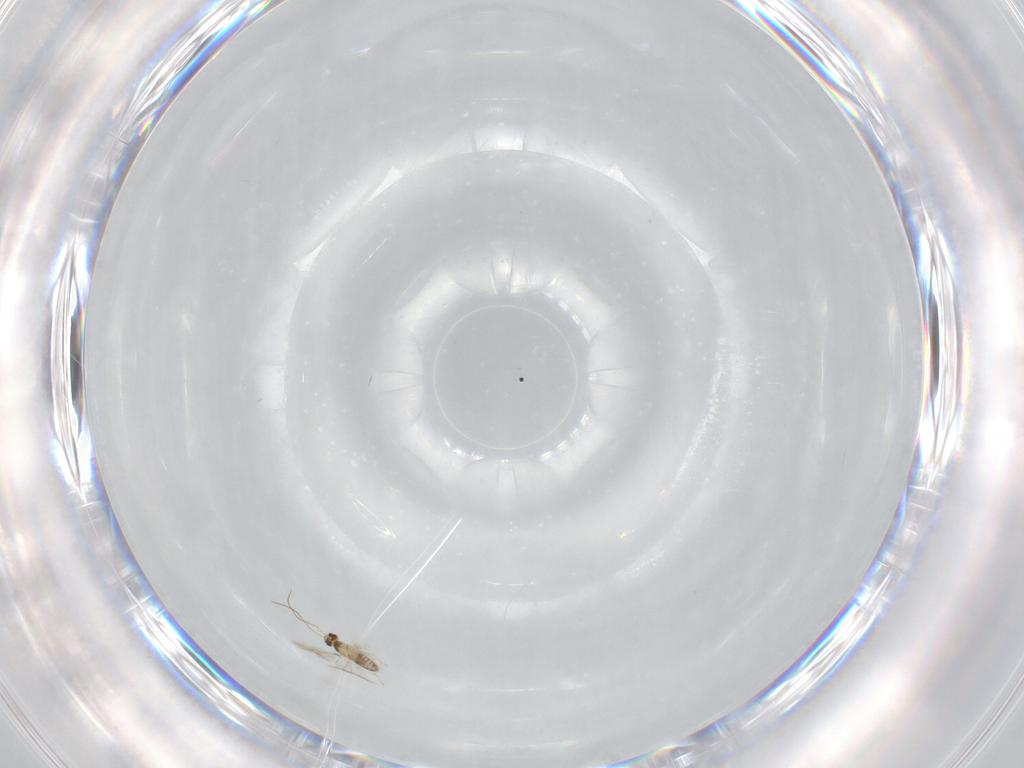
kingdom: Animalia
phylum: Arthropoda
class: Insecta
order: Hymenoptera
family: Mymaridae
